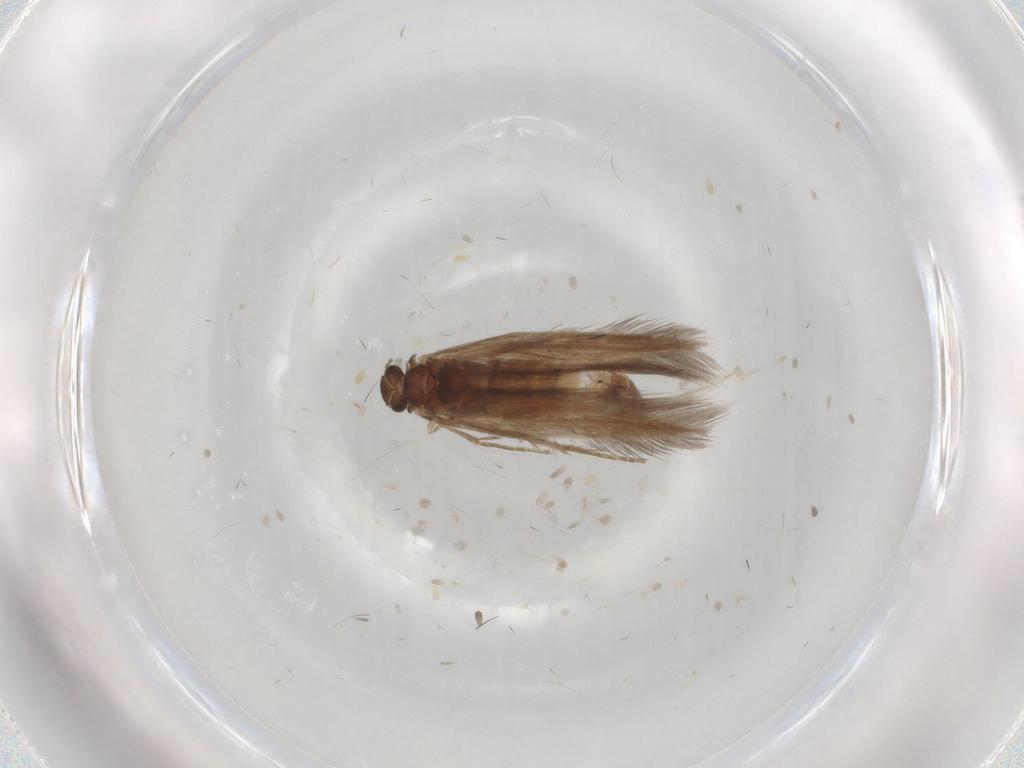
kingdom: Animalia
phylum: Arthropoda
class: Insecta
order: Trichoptera
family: Hydroptilidae
